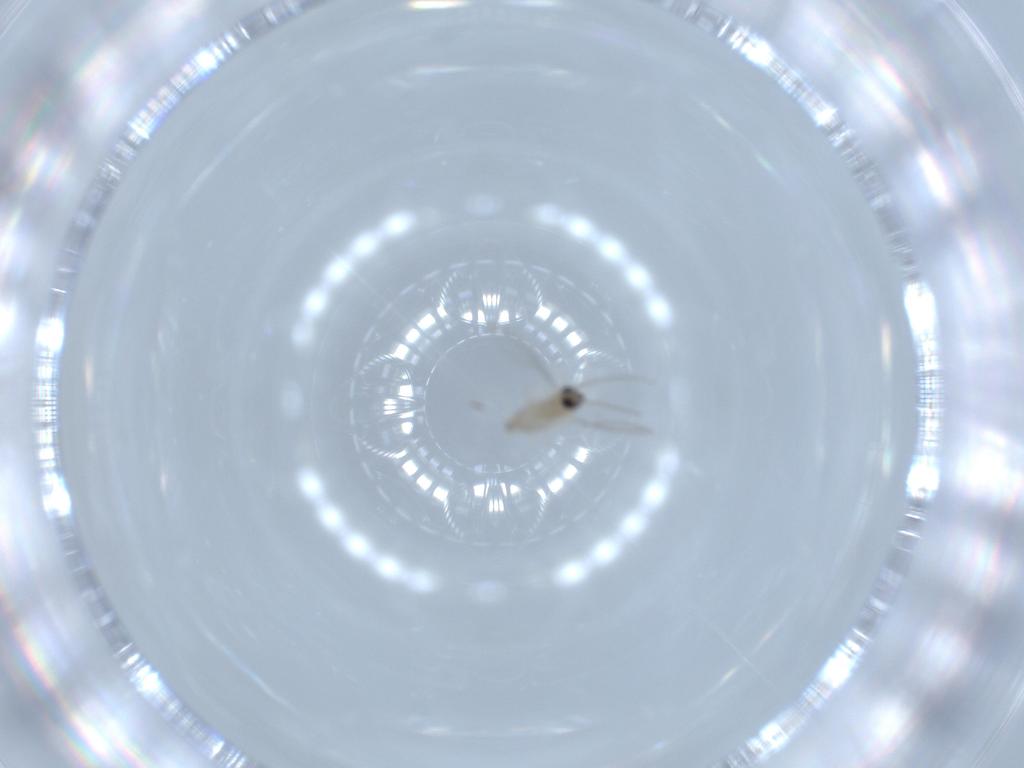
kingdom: Animalia
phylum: Arthropoda
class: Insecta
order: Diptera
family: Cecidomyiidae
